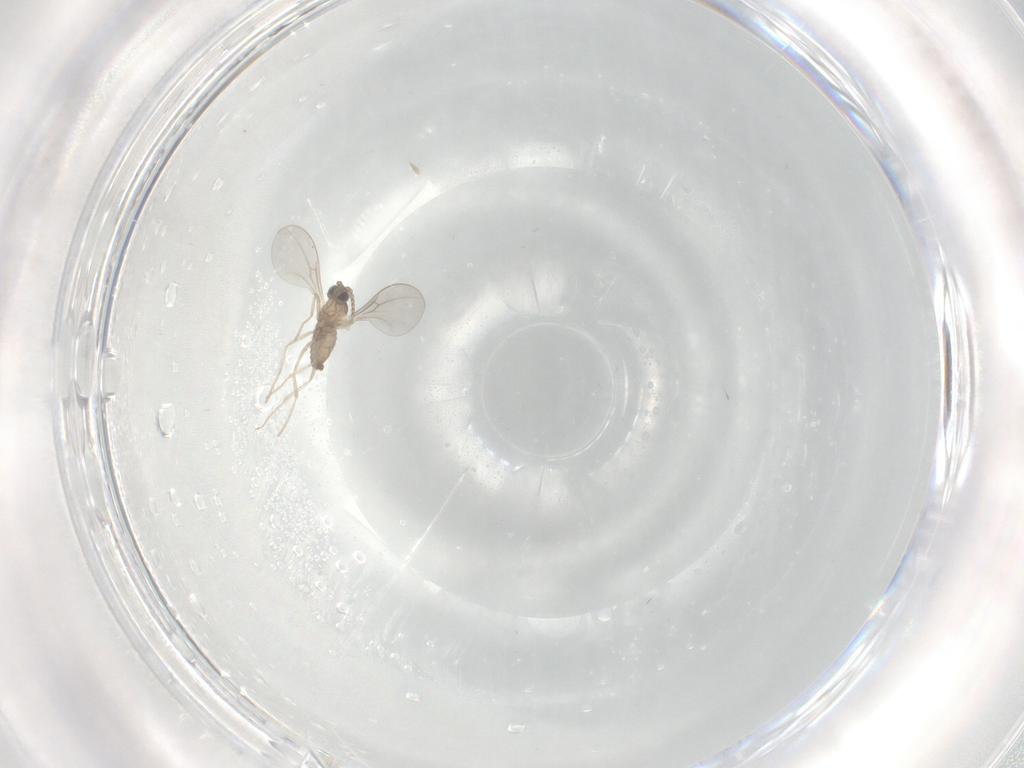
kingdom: Animalia
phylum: Arthropoda
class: Insecta
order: Diptera
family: Cecidomyiidae
